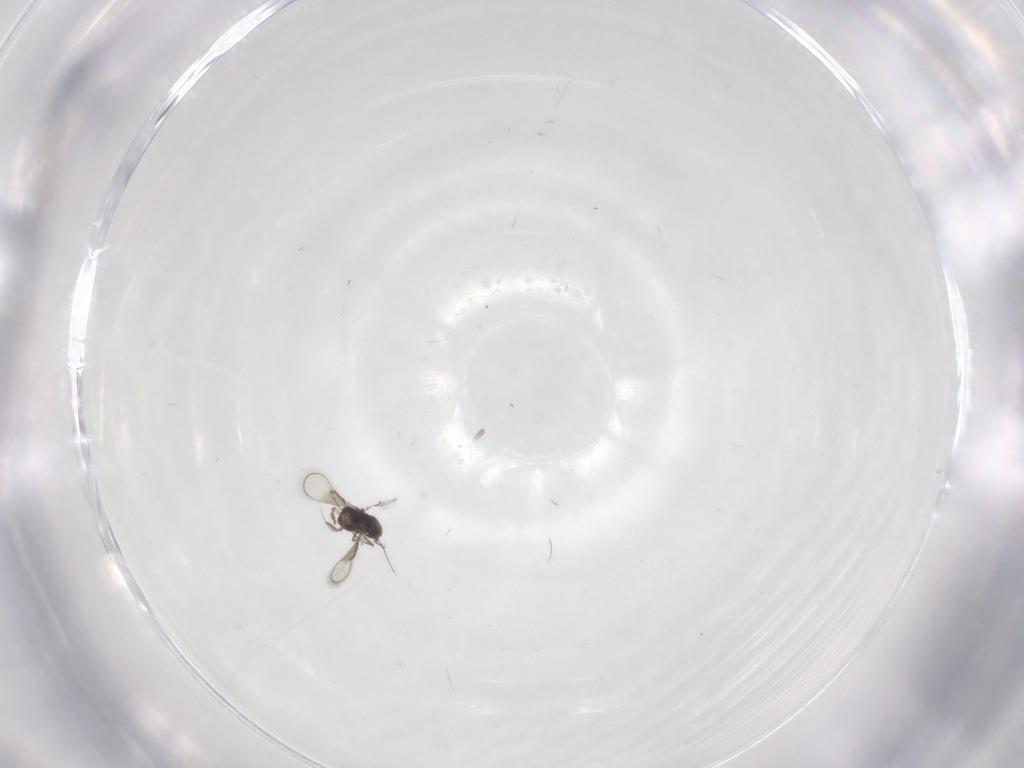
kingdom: Animalia
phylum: Arthropoda
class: Insecta
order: Hymenoptera
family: Trichogrammatidae
